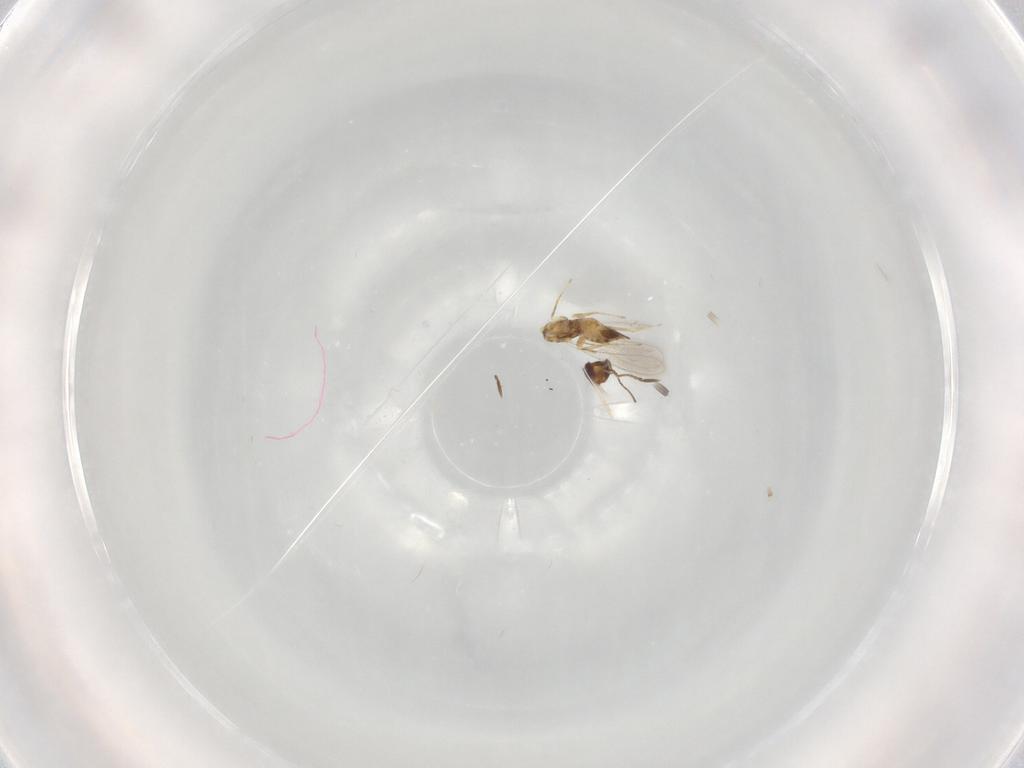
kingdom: Animalia
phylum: Arthropoda
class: Insecta
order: Hymenoptera
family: Mymaridae
